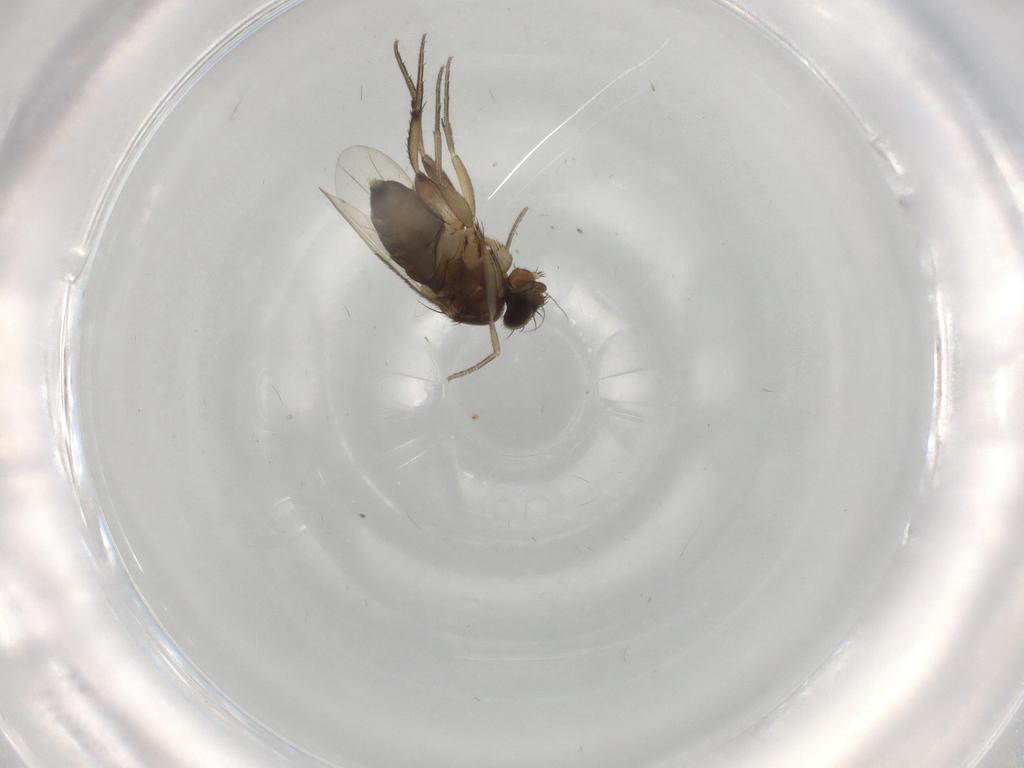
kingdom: Animalia
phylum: Arthropoda
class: Insecta
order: Diptera
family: Phoridae
